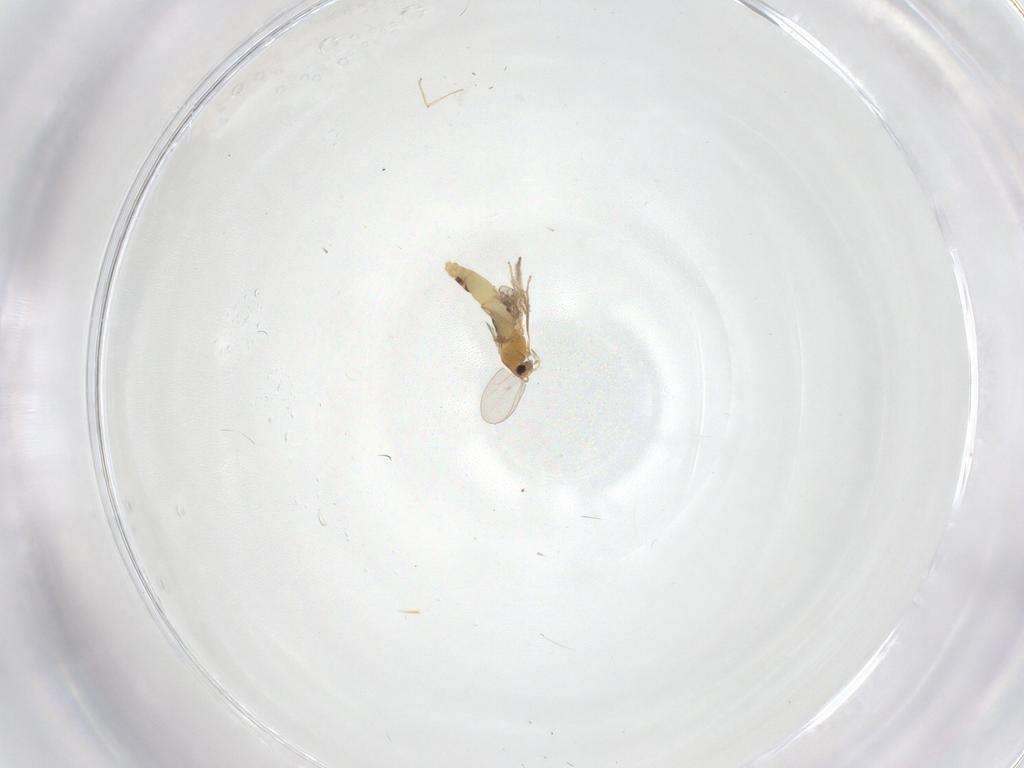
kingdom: Animalia
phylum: Arthropoda
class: Insecta
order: Diptera
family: Chironomidae
